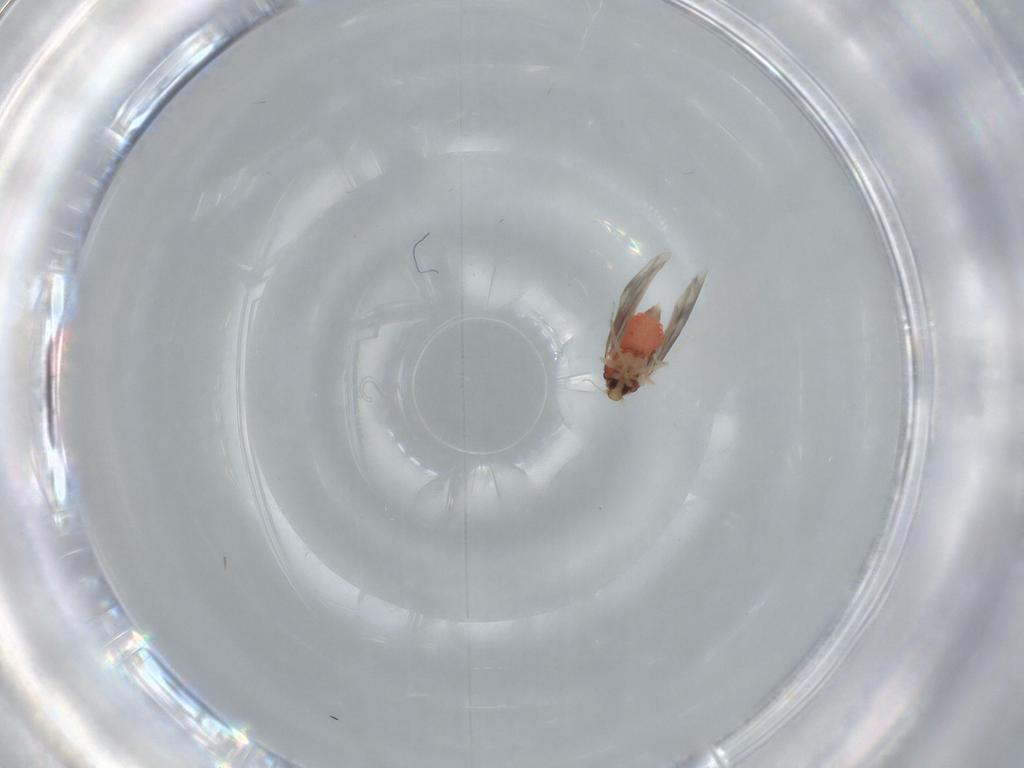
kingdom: Animalia
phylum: Arthropoda
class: Insecta
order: Hemiptera
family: Aleyrodidae
